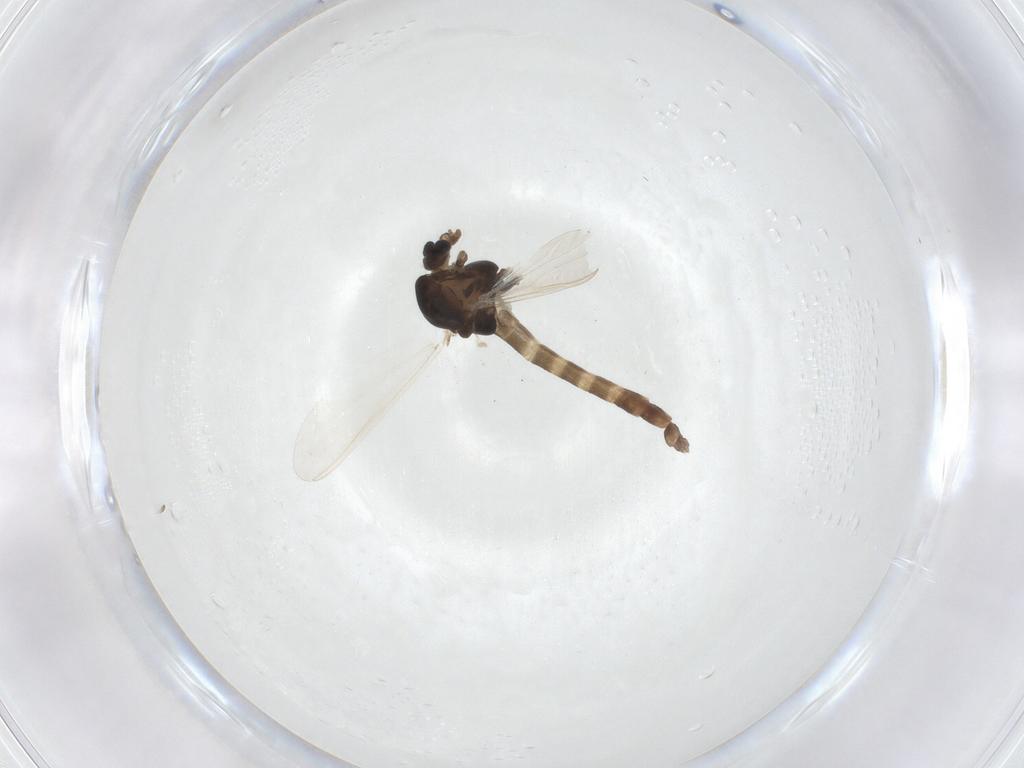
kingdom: Animalia
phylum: Arthropoda
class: Insecta
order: Diptera
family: Chironomidae
